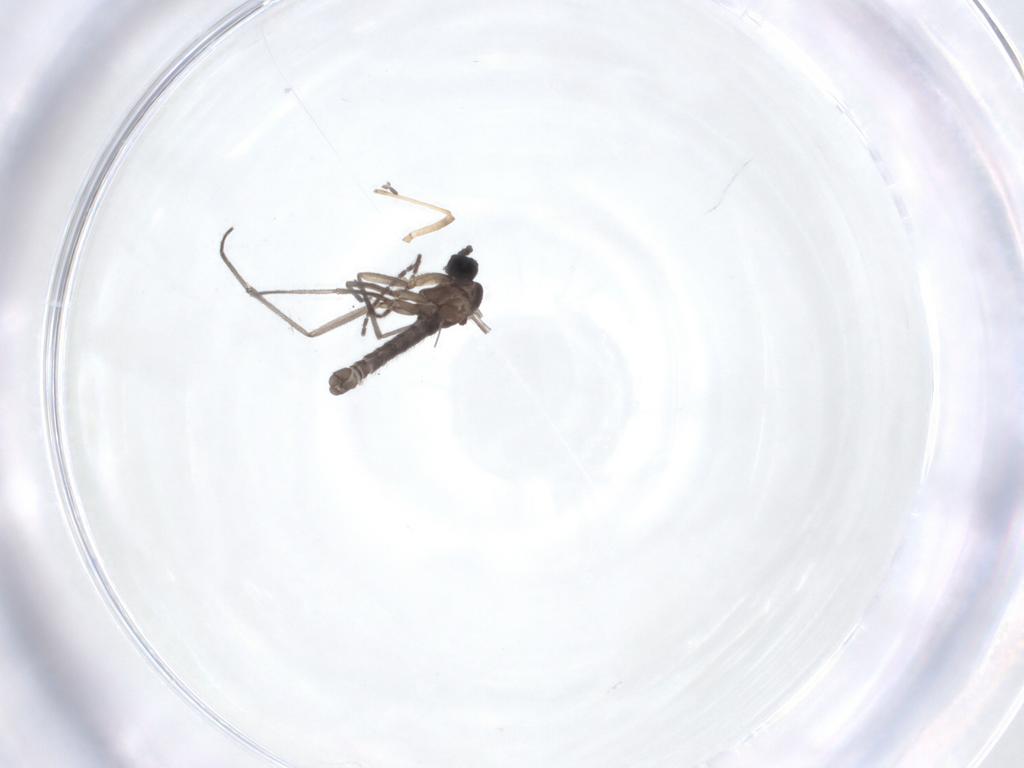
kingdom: Animalia
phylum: Arthropoda
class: Insecta
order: Diptera
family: Sciaridae
